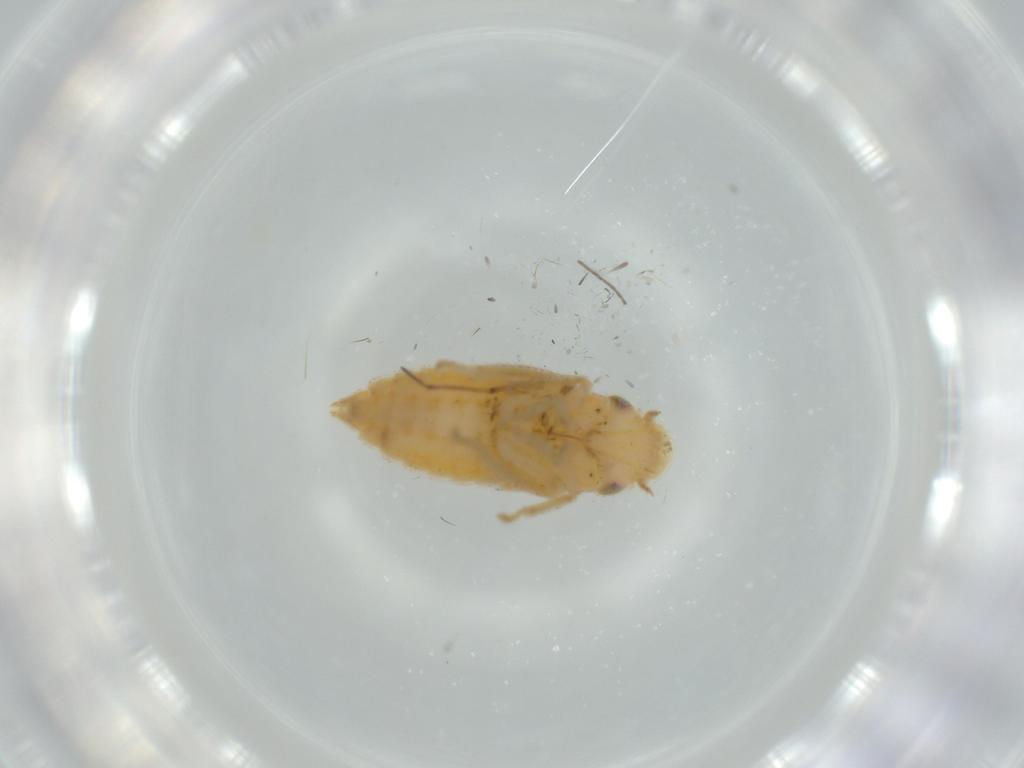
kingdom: Animalia
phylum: Arthropoda
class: Insecta
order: Hemiptera
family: Cicadellidae
